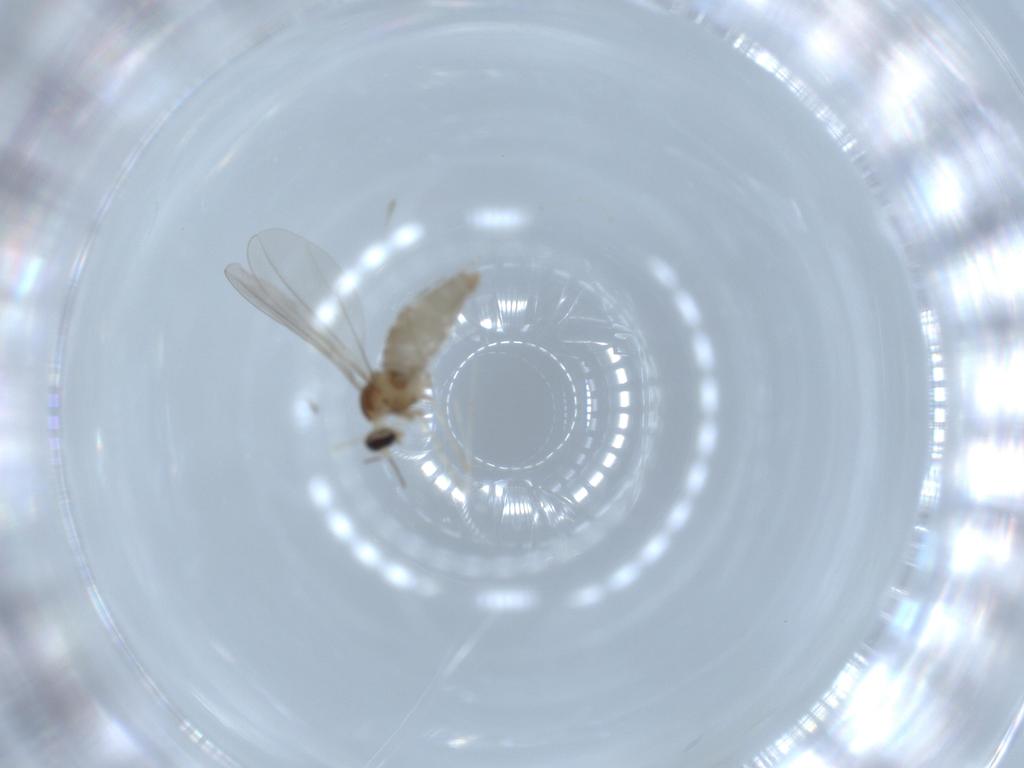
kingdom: Animalia
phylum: Arthropoda
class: Insecta
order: Diptera
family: Cecidomyiidae
